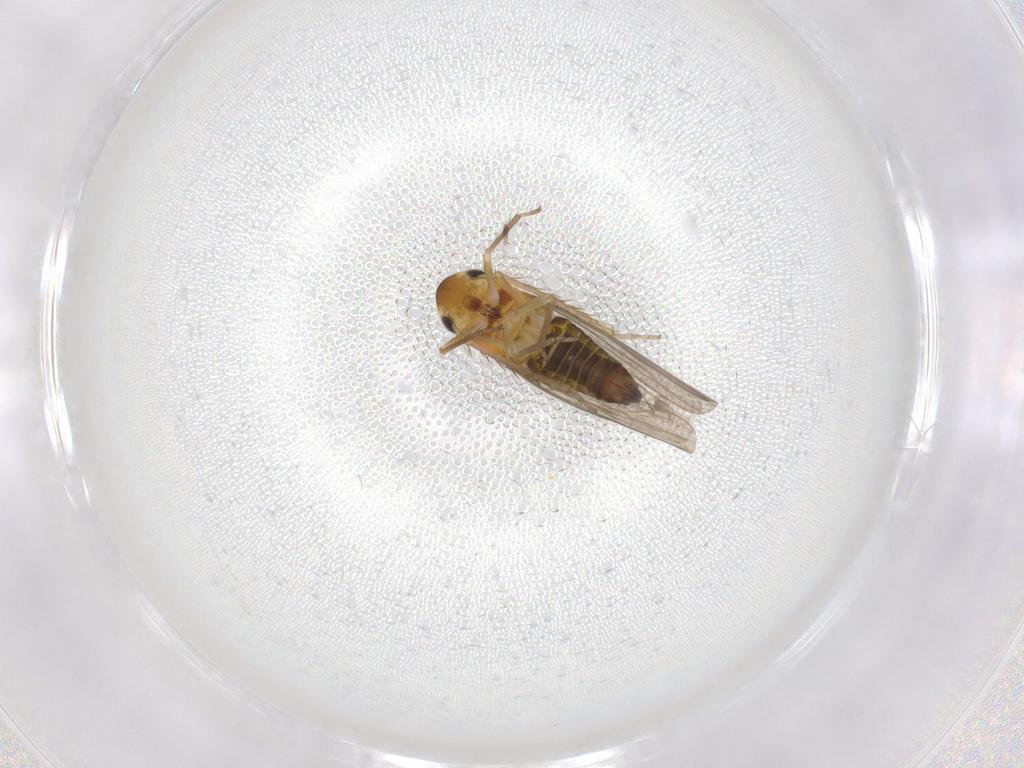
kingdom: Animalia
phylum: Arthropoda
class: Insecta
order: Hemiptera
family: Cicadellidae
